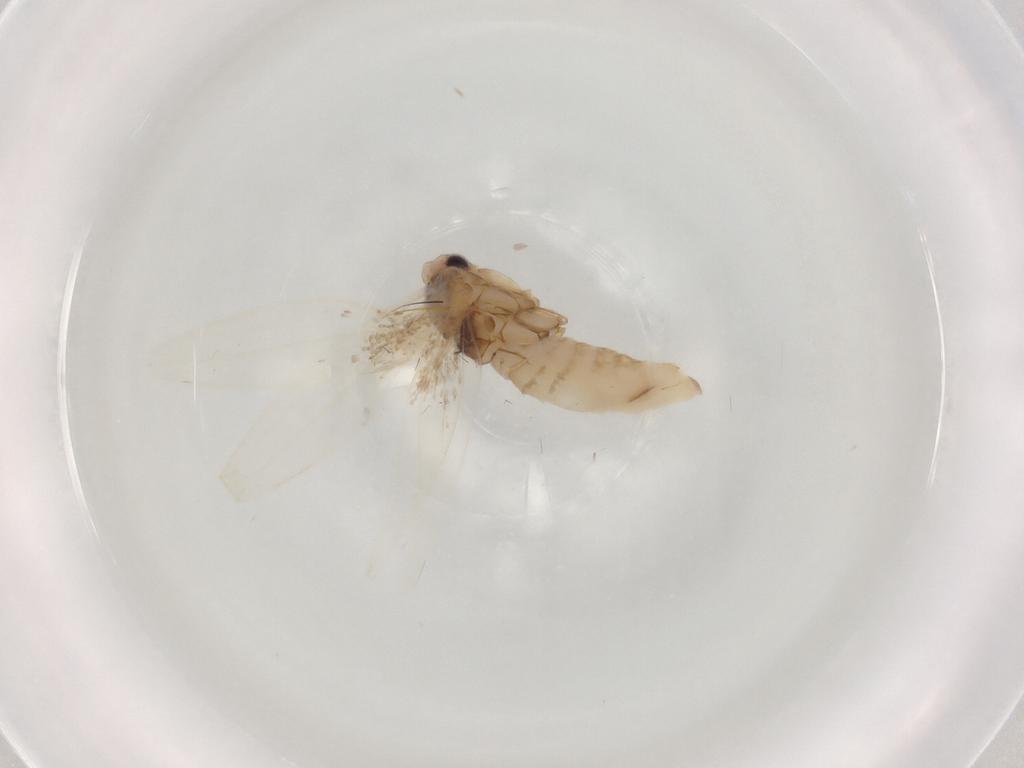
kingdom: Animalia
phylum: Arthropoda
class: Insecta
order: Lepidoptera
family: Bucculatricidae
